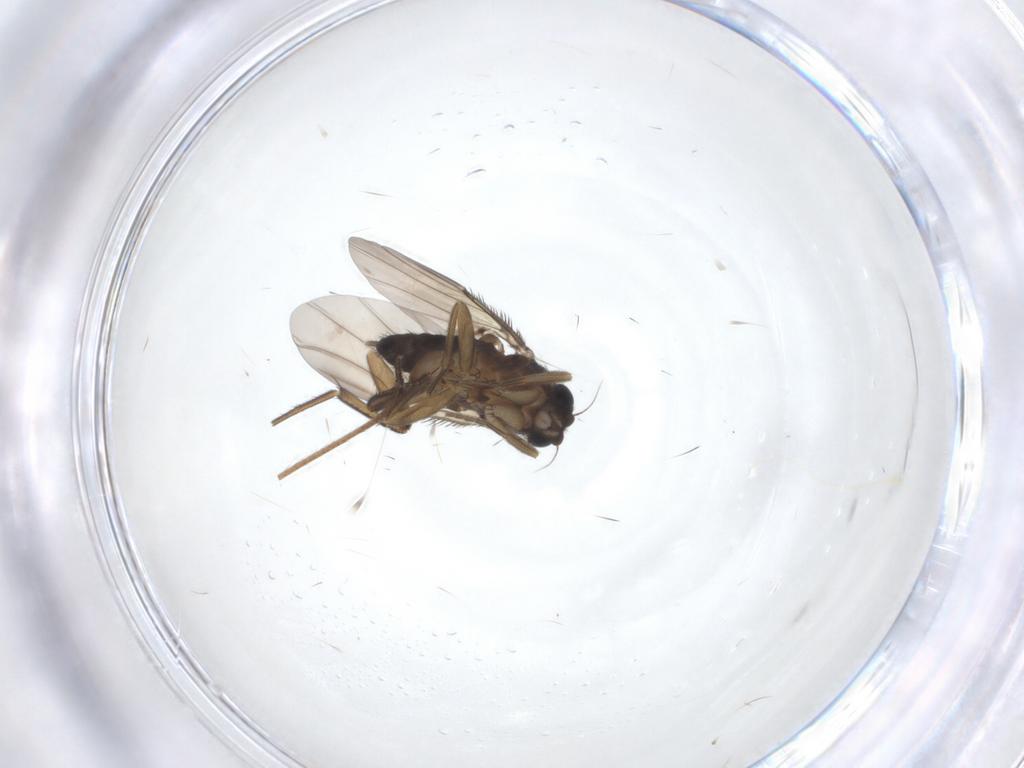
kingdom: Animalia
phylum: Arthropoda
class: Insecta
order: Diptera
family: Phoridae
